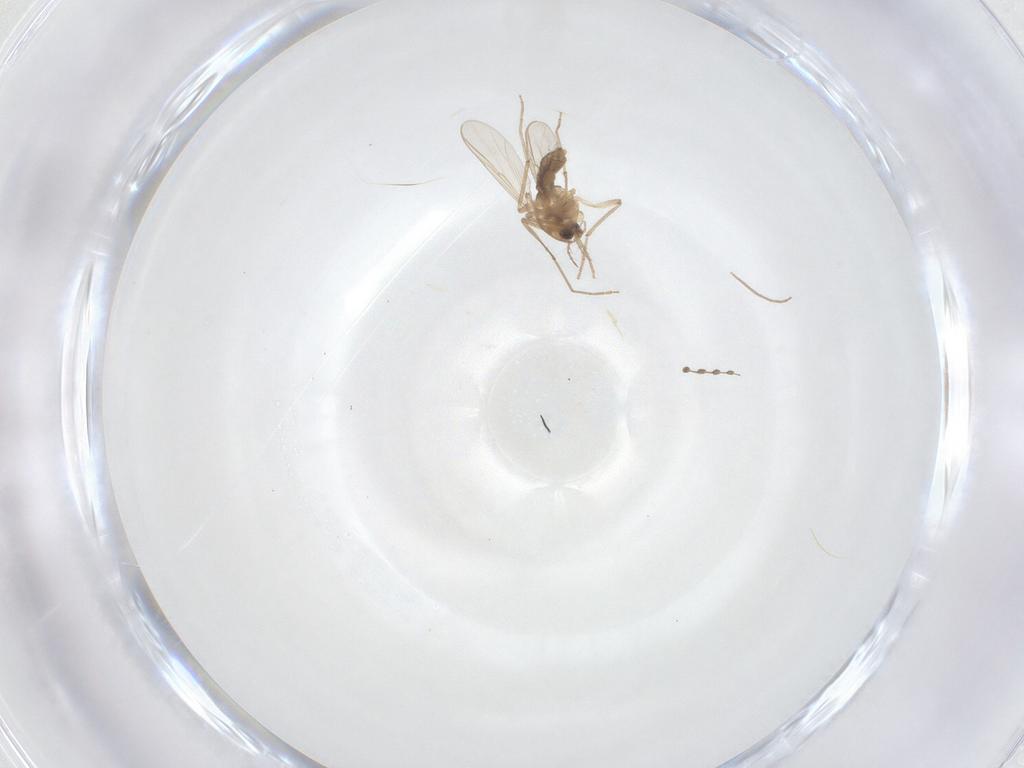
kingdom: Animalia
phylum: Arthropoda
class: Insecta
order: Diptera
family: Chironomidae
